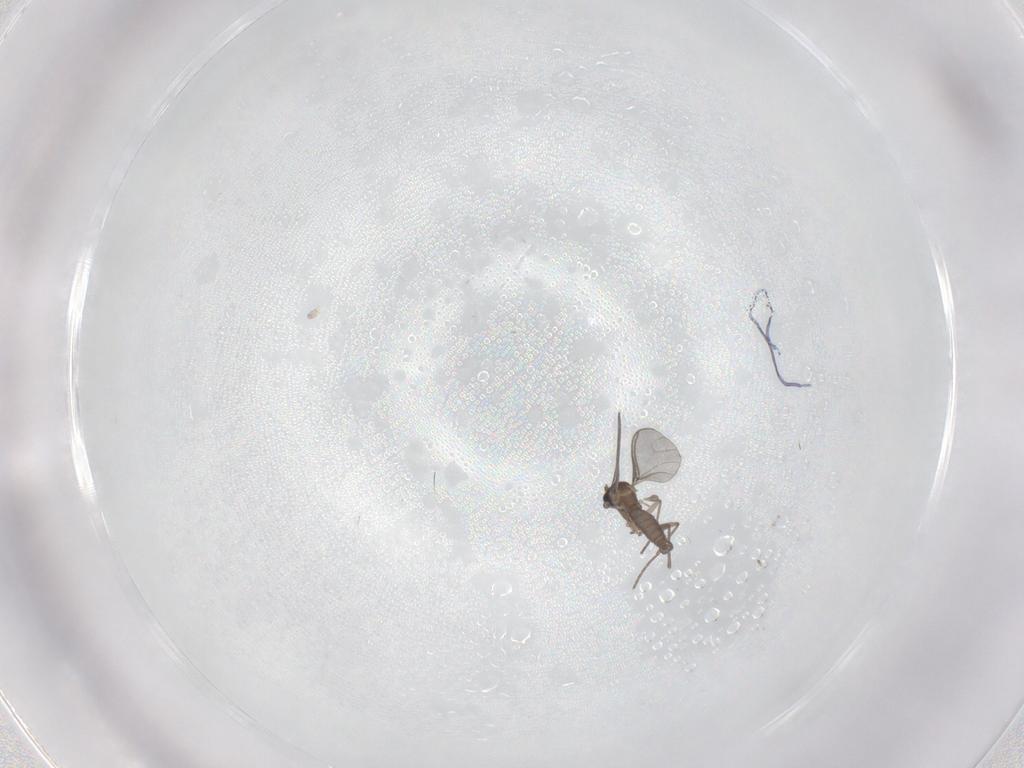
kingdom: Animalia
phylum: Arthropoda
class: Insecta
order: Diptera
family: Sciaridae
